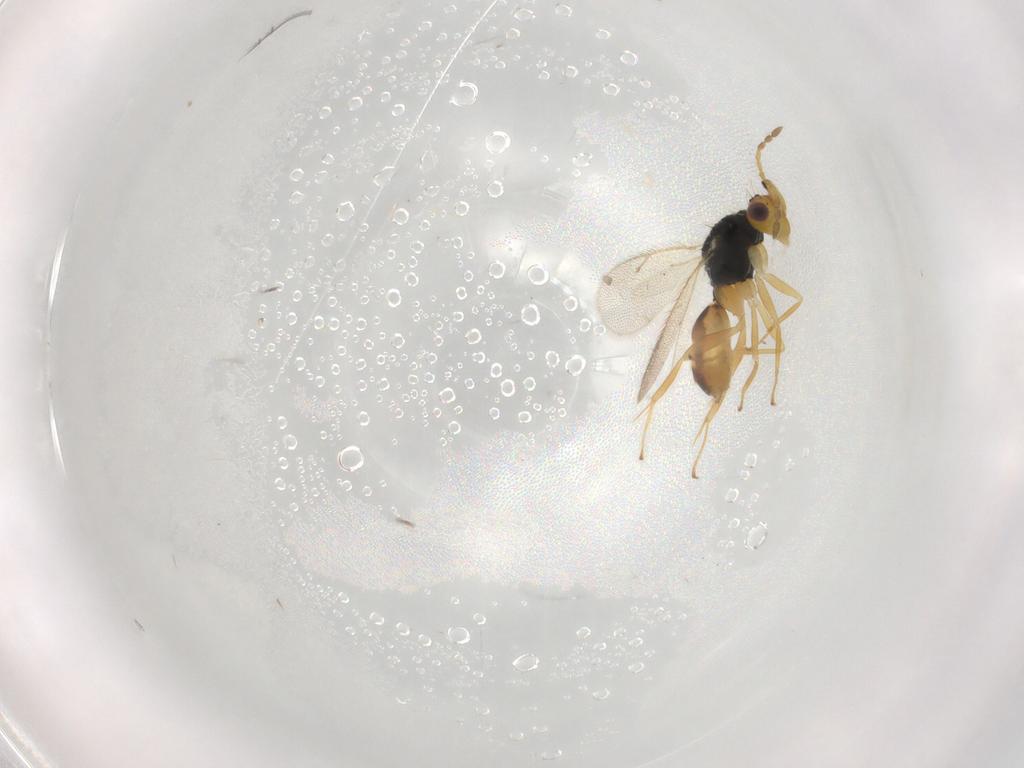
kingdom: Animalia
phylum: Arthropoda
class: Insecta
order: Hymenoptera
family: Eulophidae
